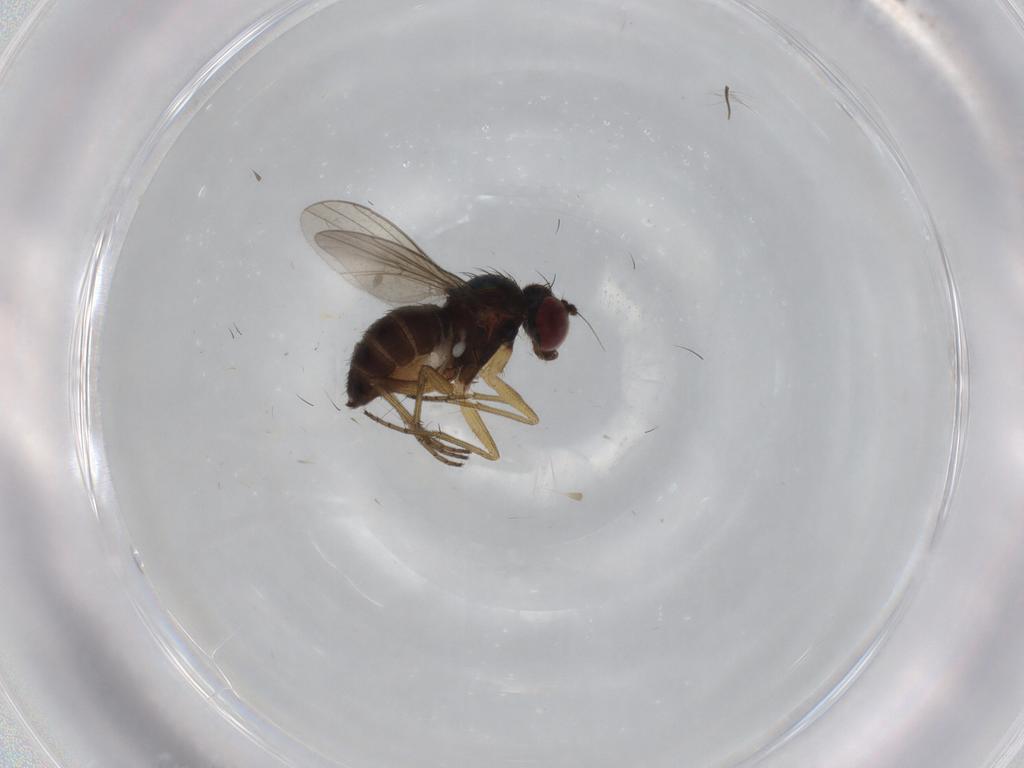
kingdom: Animalia
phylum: Arthropoda
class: Insecta
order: Diptera
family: Dolichopodidae
